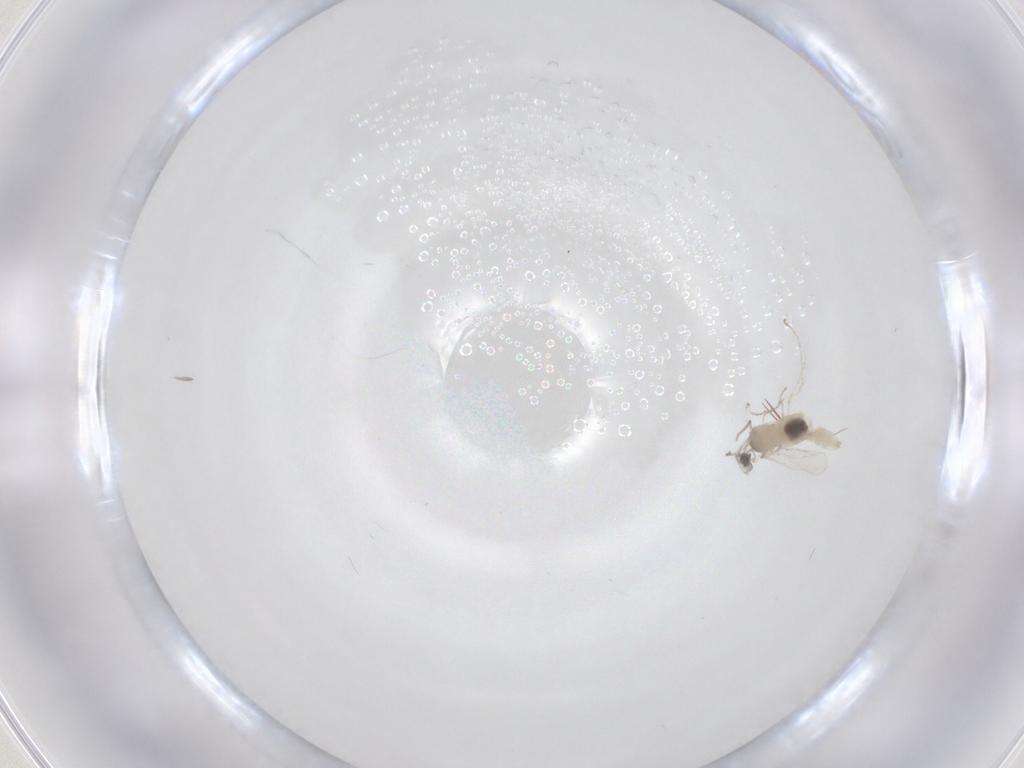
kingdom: Animalia
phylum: Arthropoda
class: Insecta
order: Diptera
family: Cecidomyiidae
